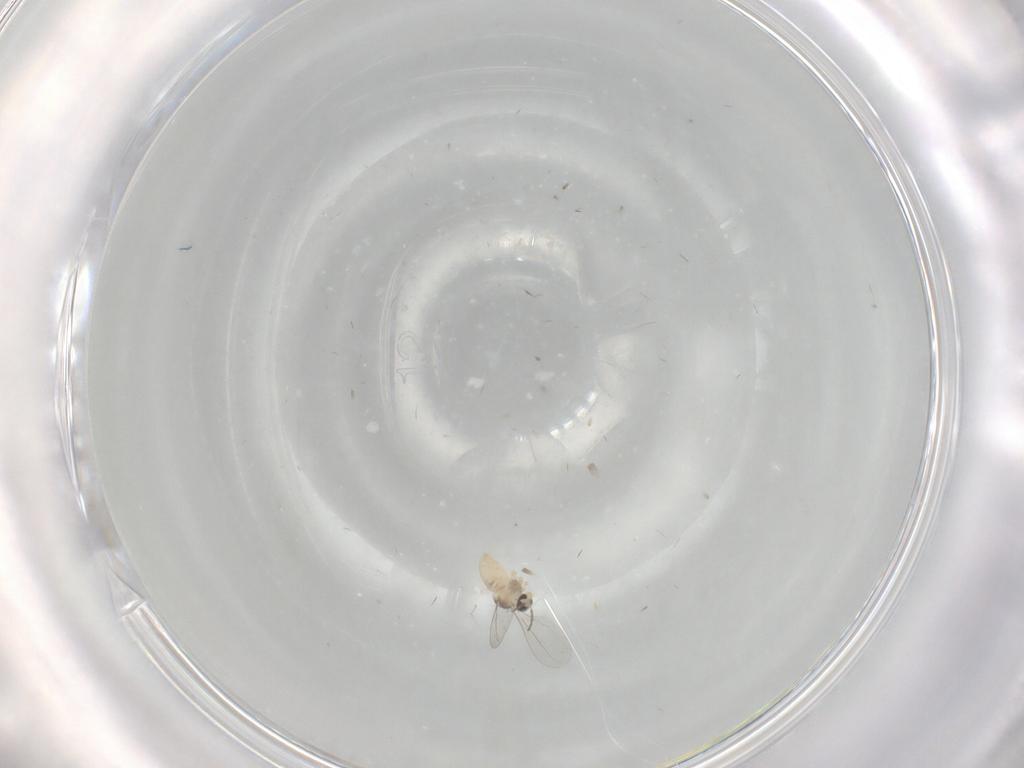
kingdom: Animalia
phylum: Arthropoda
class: Insecta
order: Diptera
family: Cecidomyiidae
